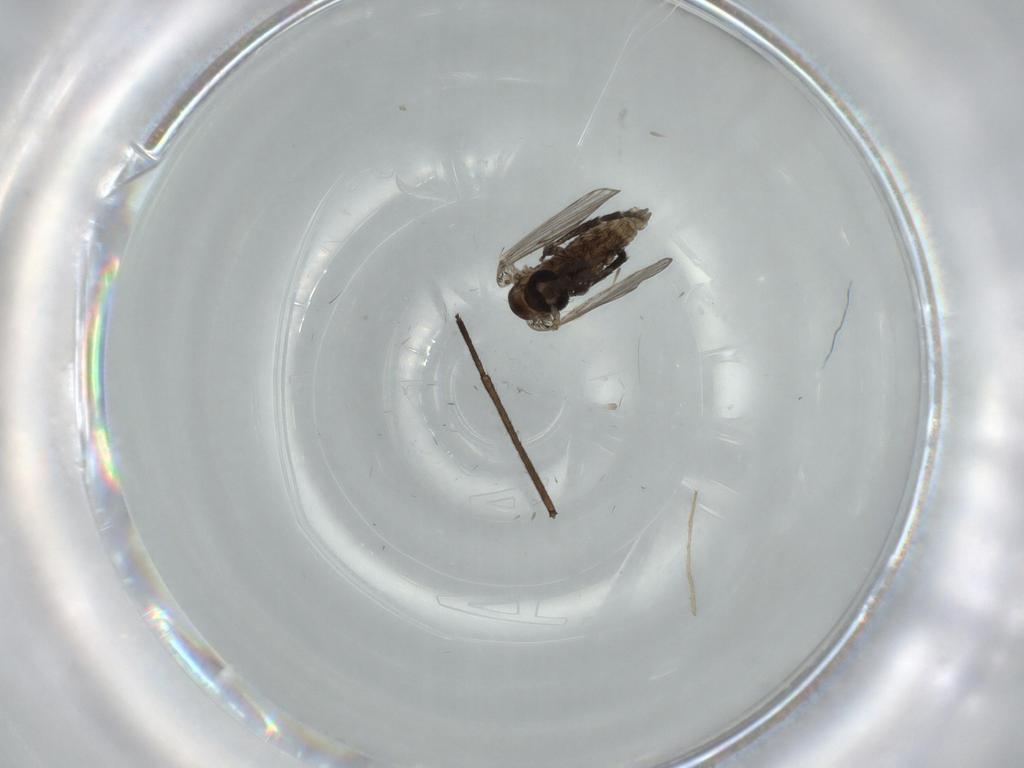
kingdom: Animalia
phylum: Arthropoda
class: Insecta
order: Diptera
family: Psychodidae
